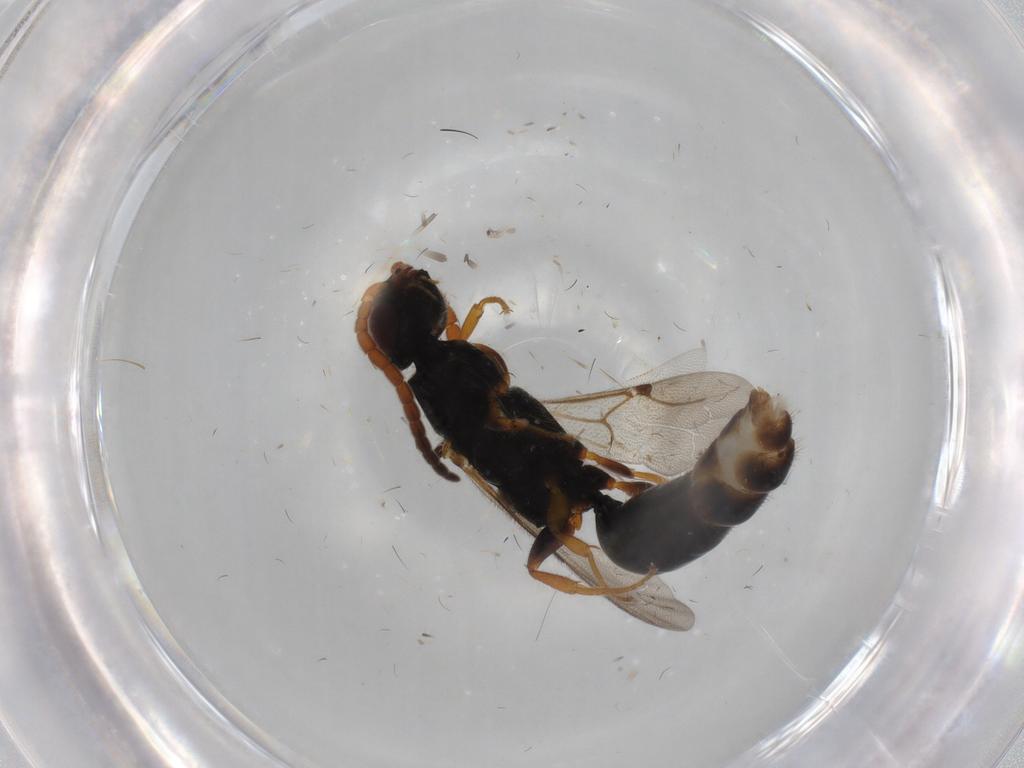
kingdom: Animalia
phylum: Arthropoda
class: Insecta
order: Hymenoptera
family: Bethylidae
